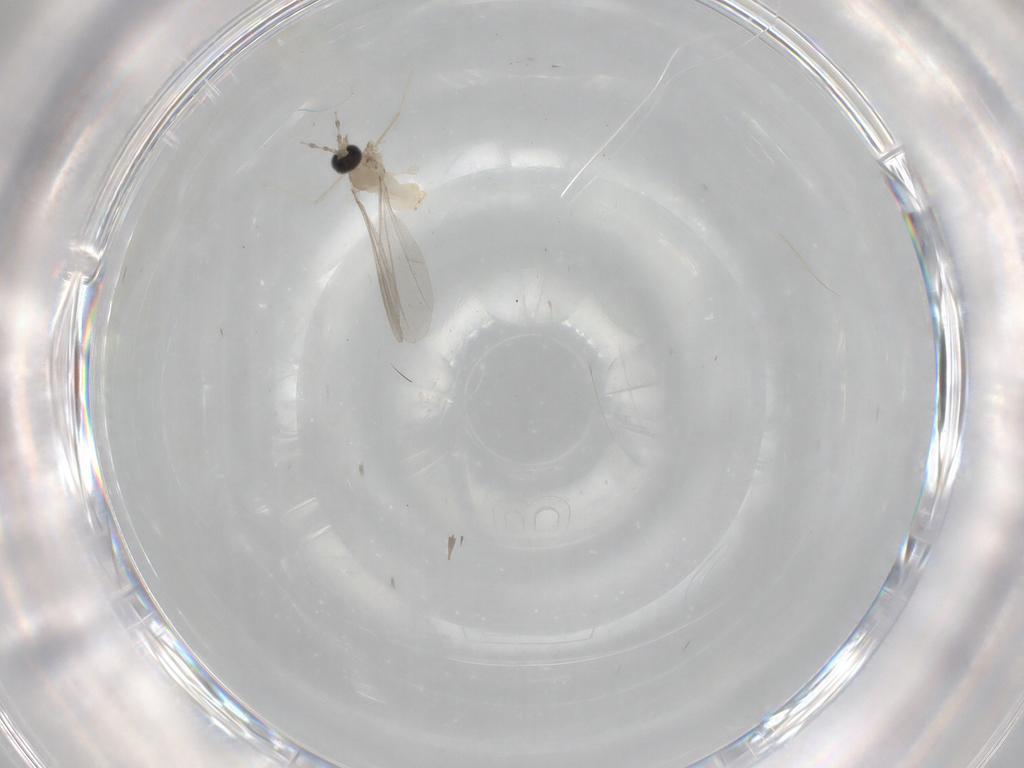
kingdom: Animalia
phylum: Arthropoda
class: Insecta
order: Diptera
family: Cecidomyiidae
